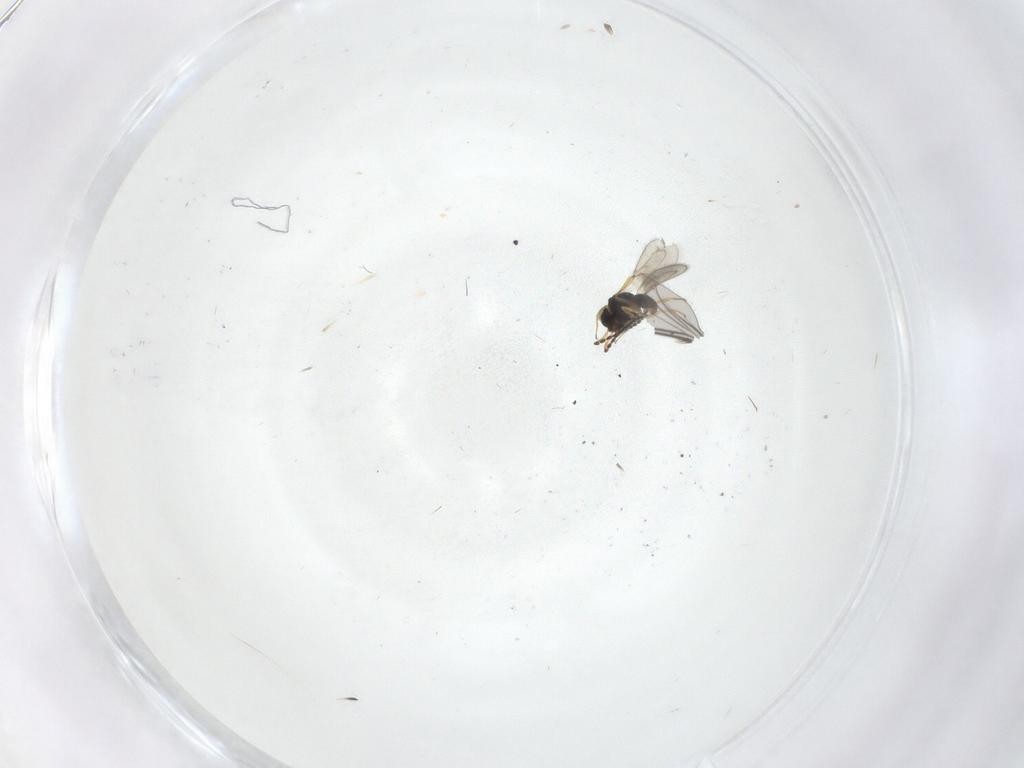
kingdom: Animalia
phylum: Arthropoda
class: Insecta
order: Hymenoptera
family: Scelionidae
